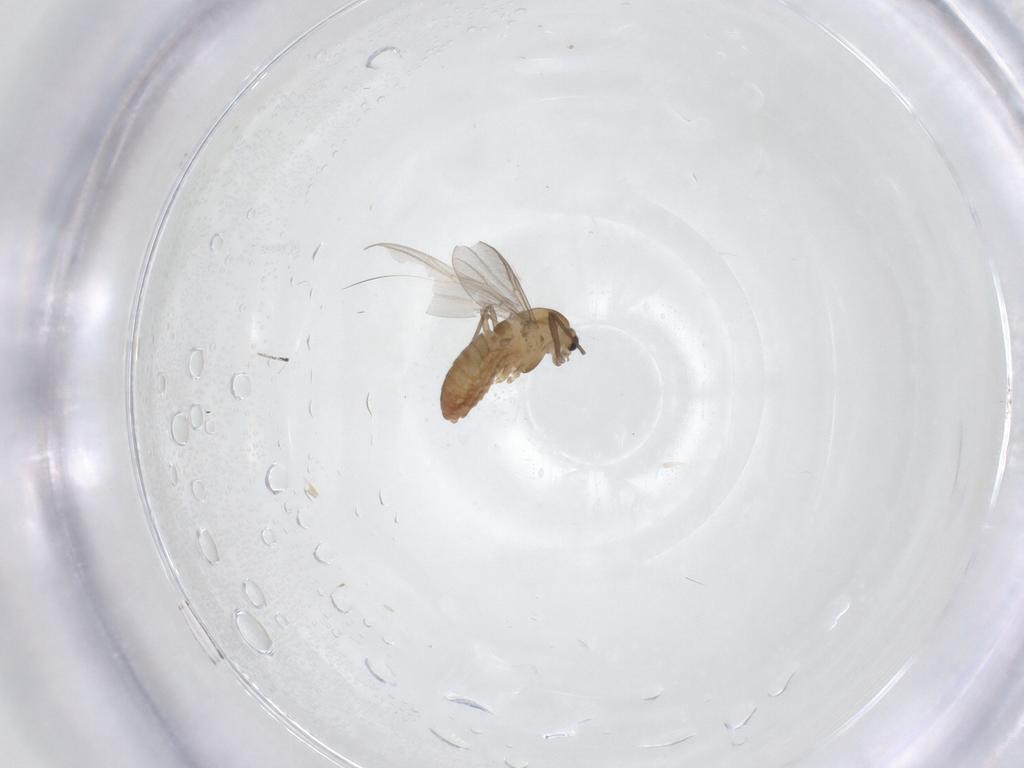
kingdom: Animalia
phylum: Arthropoda
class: Insecta
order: Diptera
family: Chironomidae
